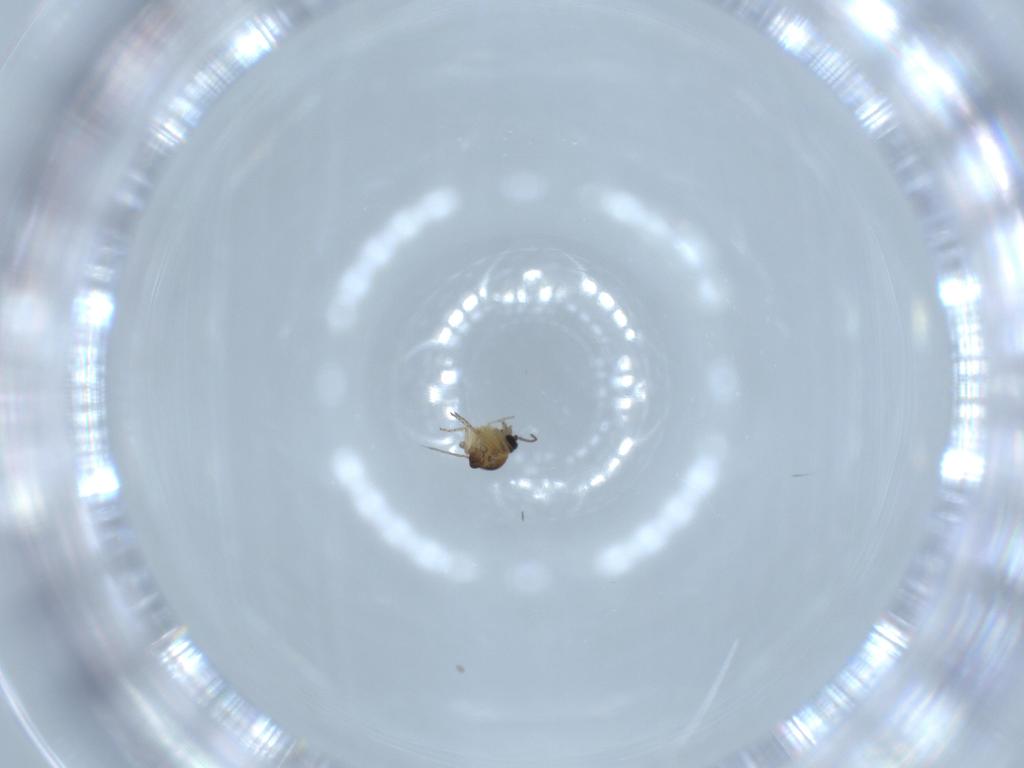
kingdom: Animalia
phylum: Arthropoda
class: Insecta
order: Diptera
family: Ceratopogonidae
